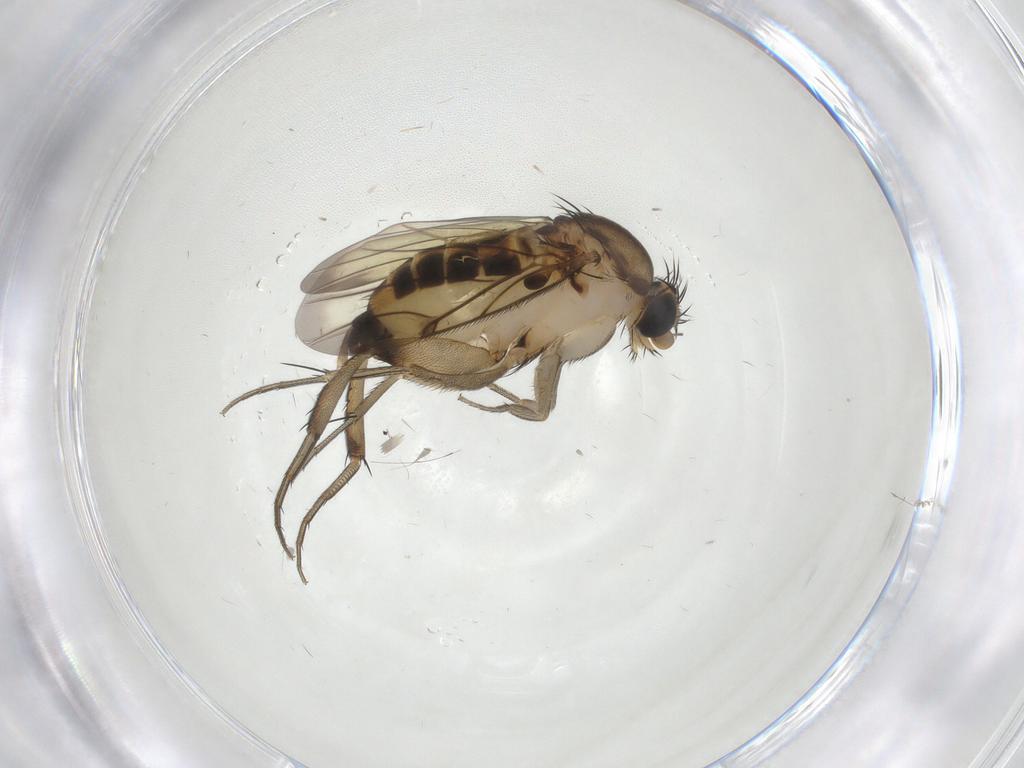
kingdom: Animalia
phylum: Arthropoda
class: Insecta
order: Diptera
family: Phoridae
